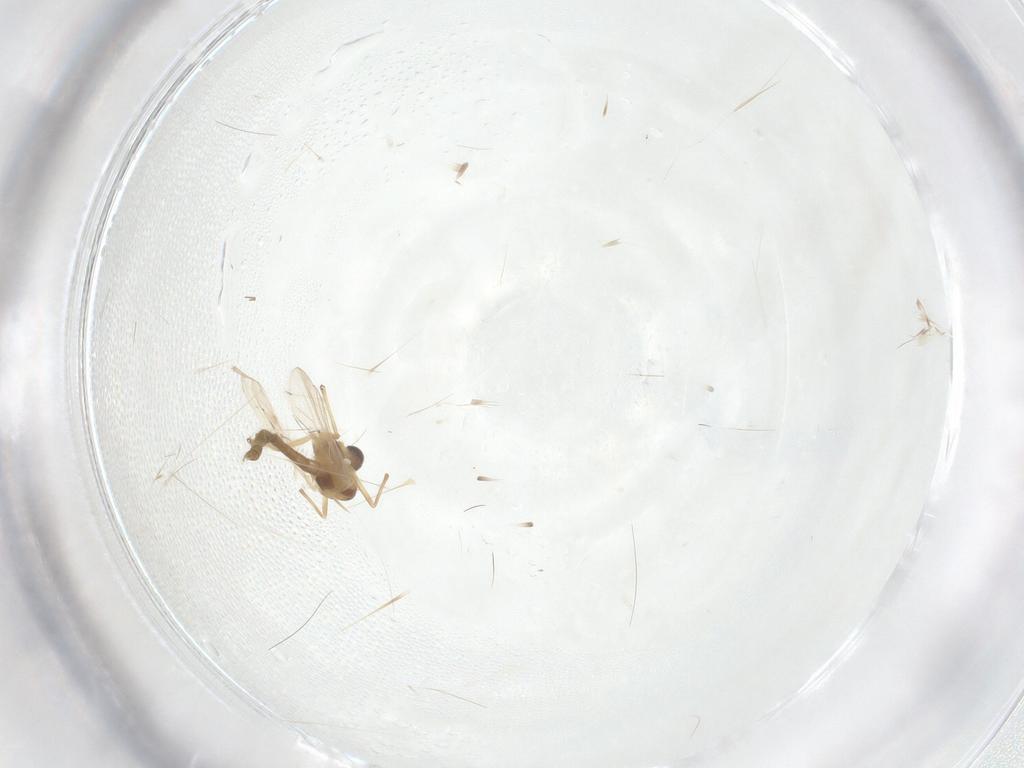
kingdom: Animalia
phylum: Arthropoda
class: Insecta
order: Diptera
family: Chironomidae
